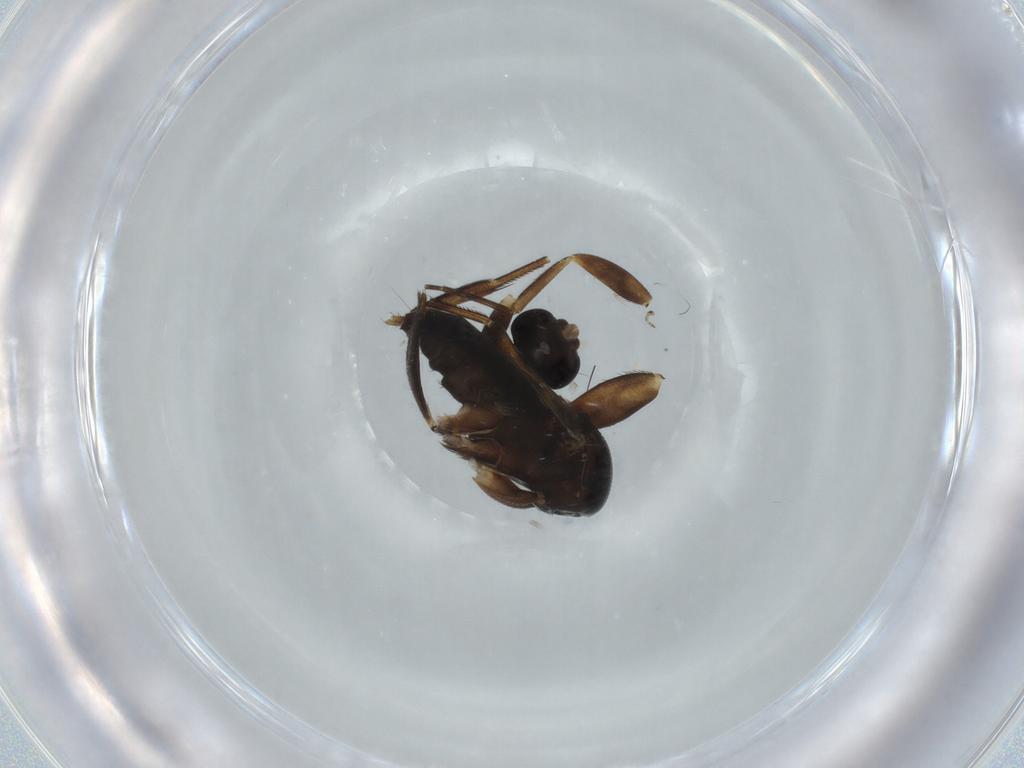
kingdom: Animalia
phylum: Arthropoda
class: Insecta
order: Diptera
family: Phoridae
